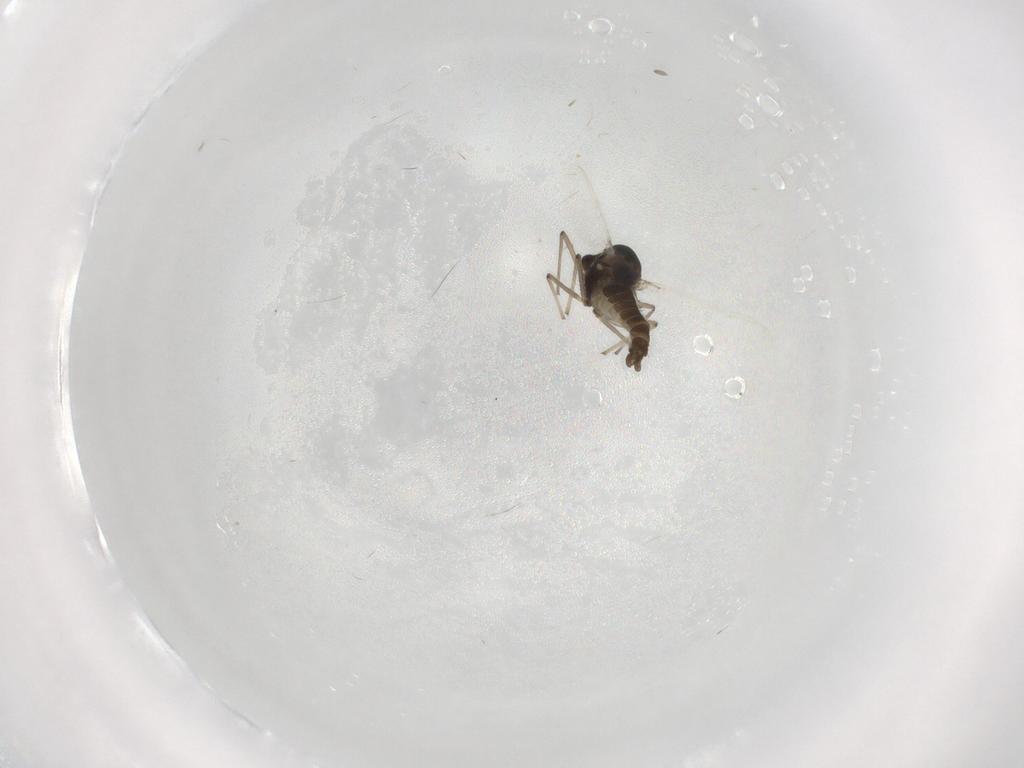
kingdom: Animalia
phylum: Arthropoda
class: Insecta
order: Diptera
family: Chironomidae
